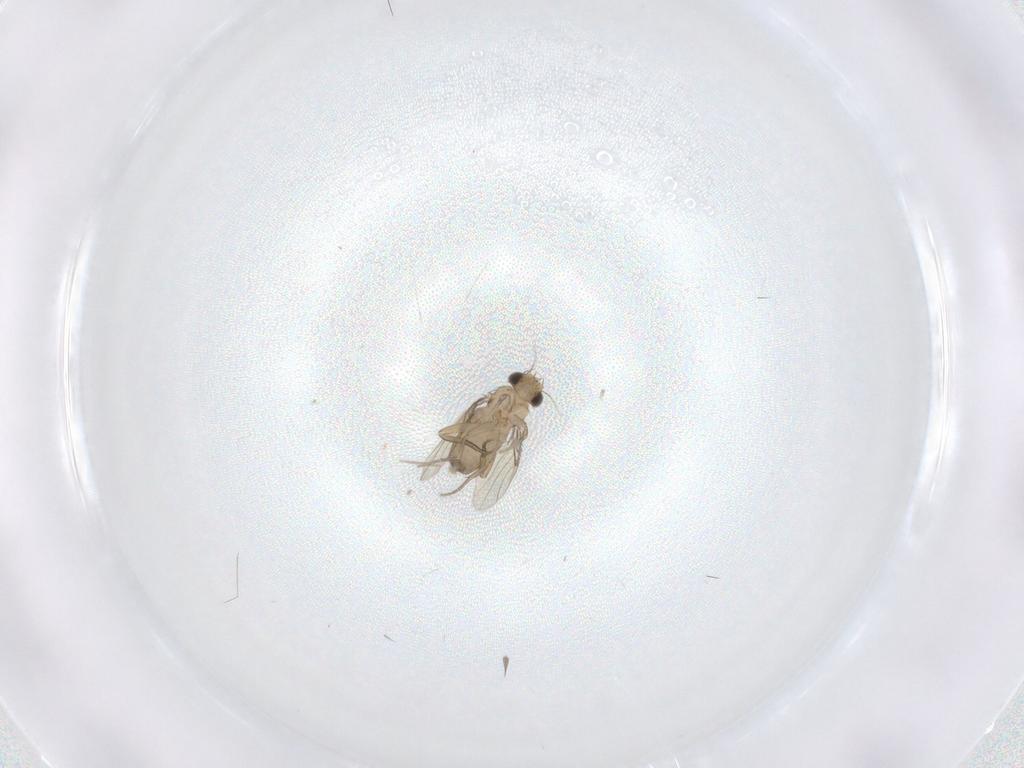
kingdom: Animalia
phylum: Arthropoda
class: Insecta
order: Diptera
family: Phoridae
